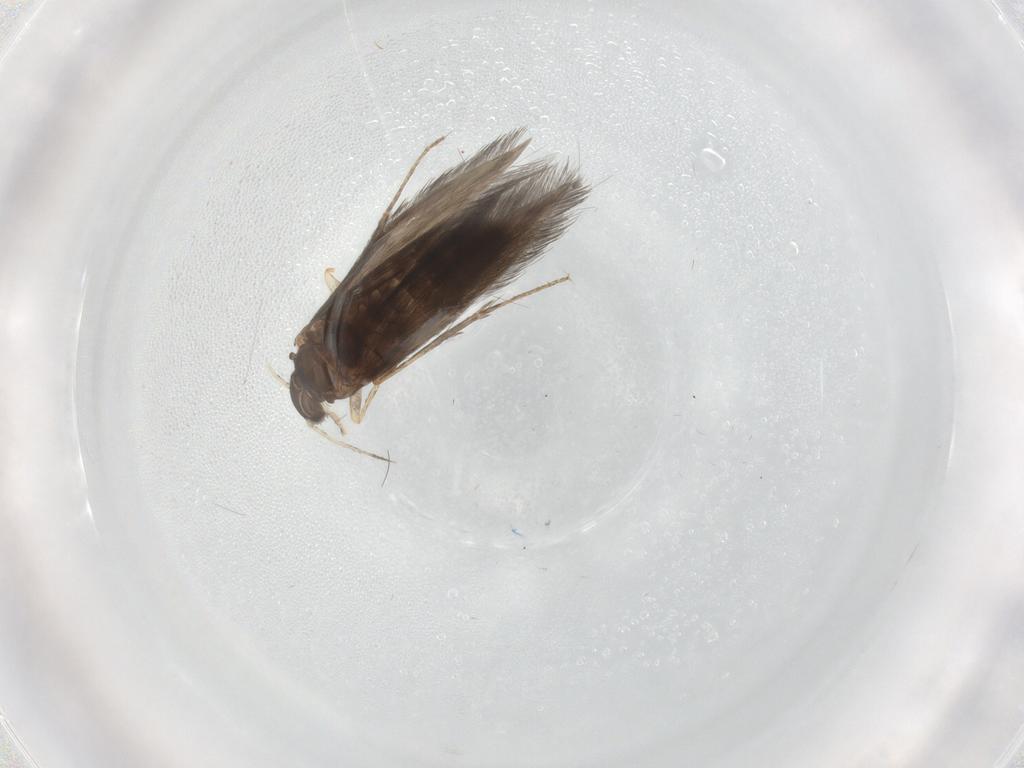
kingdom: Animalia
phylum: Arthropoda
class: Insecta
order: Trichoptera
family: Hydroptilidae
